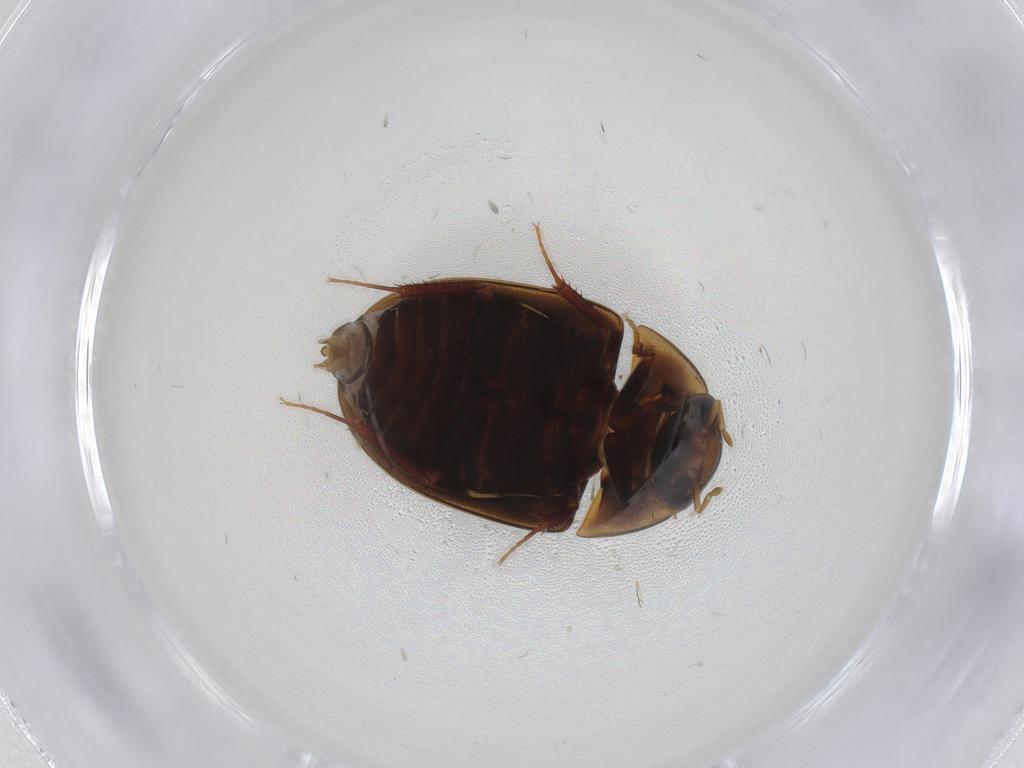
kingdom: Animalia
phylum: Arthropoda
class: Insecta
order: Coleoptera
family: Hydrophilidae
